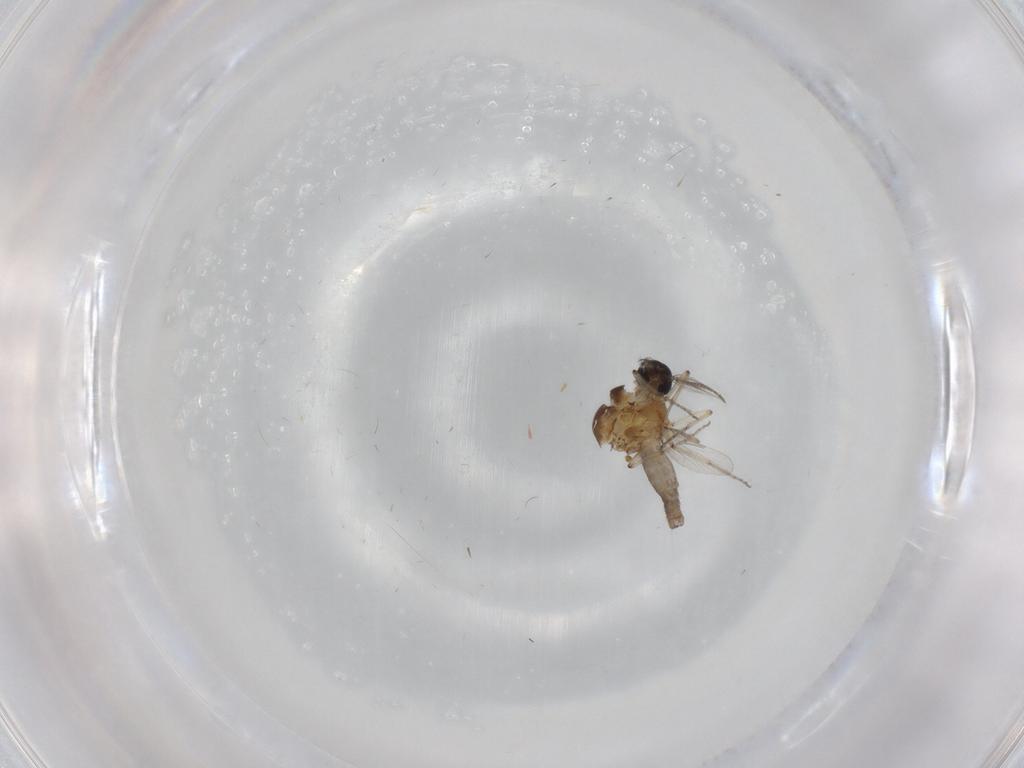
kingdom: Animalia
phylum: Arthropoda
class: Insecta
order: Diptera
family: Ceratopogonidae
